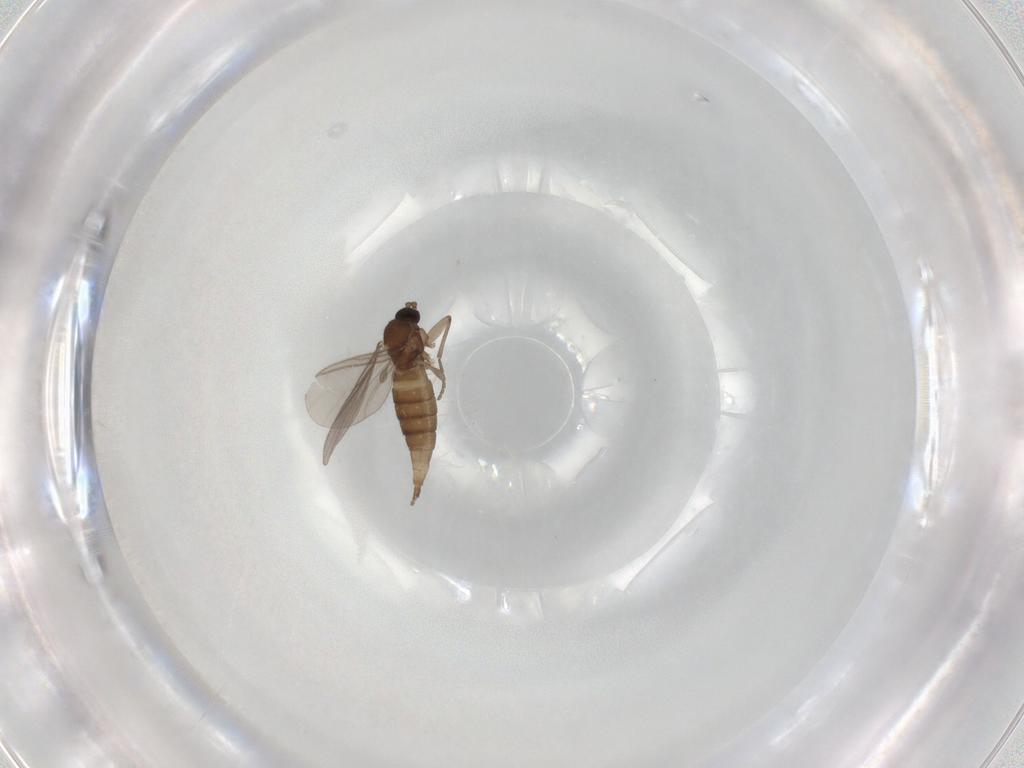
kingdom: Animalia
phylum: Arthropoda
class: Insecta
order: Diptera
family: Sciaridae
